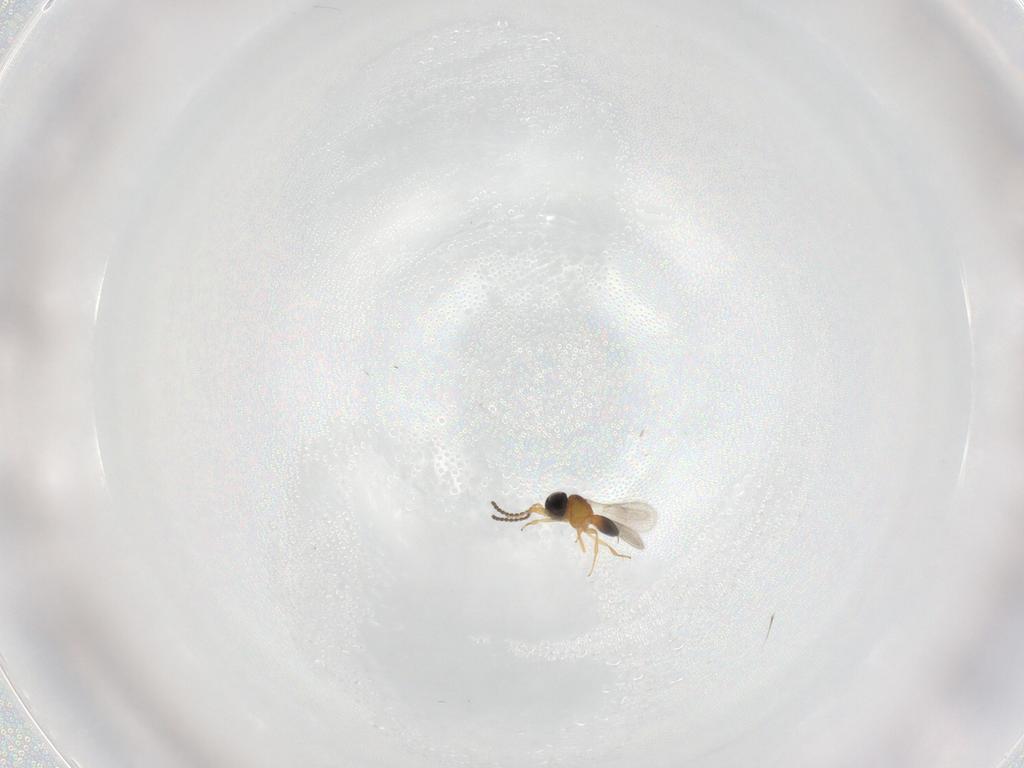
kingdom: Animalia
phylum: Arthropoda
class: Insecta
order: Hymenoptera
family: Scelionidae
